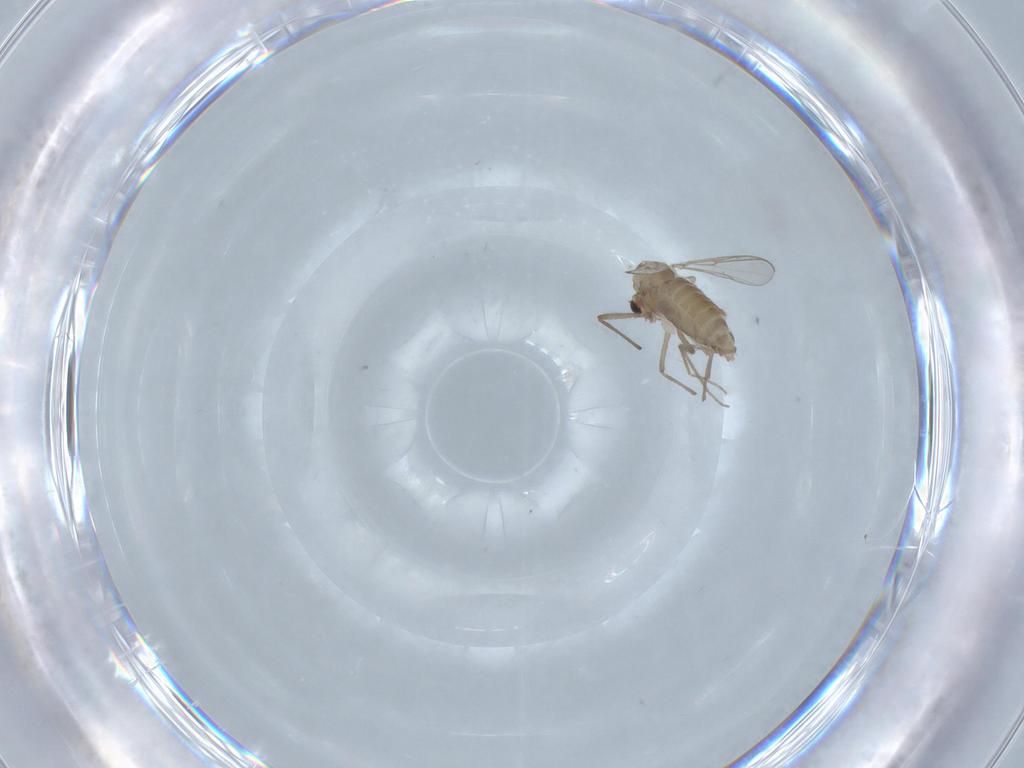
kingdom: Animalia
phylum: Arthropoda
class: Insecta
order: Diptera
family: Chironomidae
